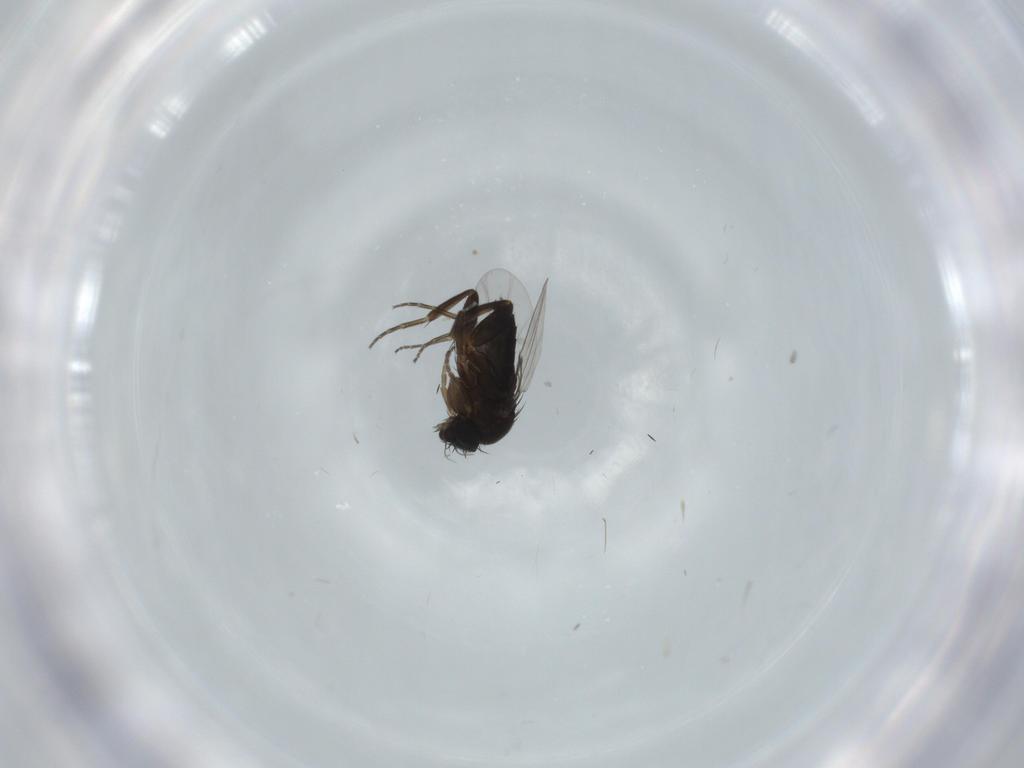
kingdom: Animalia
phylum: Arthropoda
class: Insecta
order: Diptera
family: Phoridae
